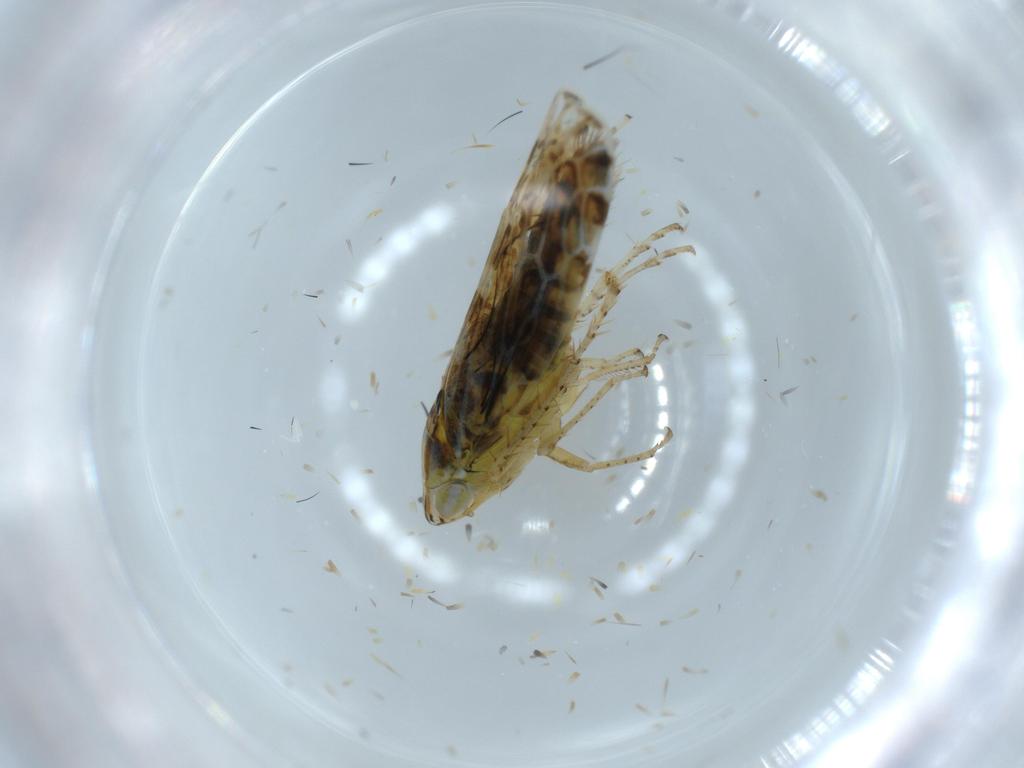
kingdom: Animalia
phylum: Arthropoda
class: Insecta
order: Hemiptera
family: Cicadellidae
